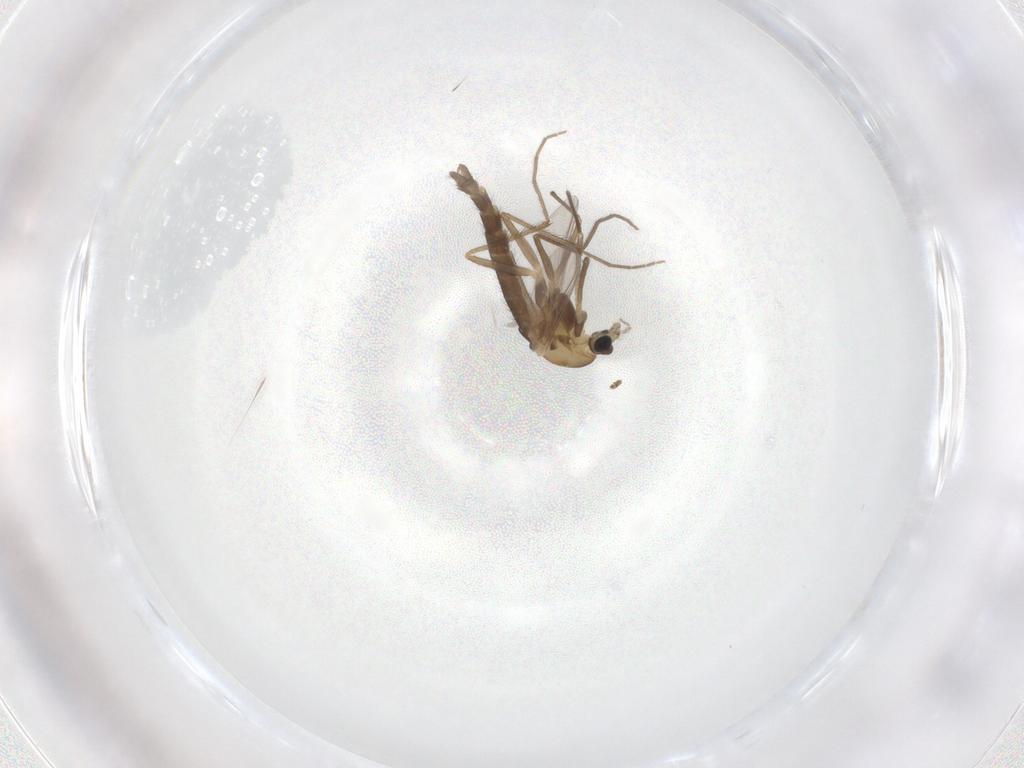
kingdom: Animalia
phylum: Arthropoda
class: Insecta
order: Diptera
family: Chironomidae
